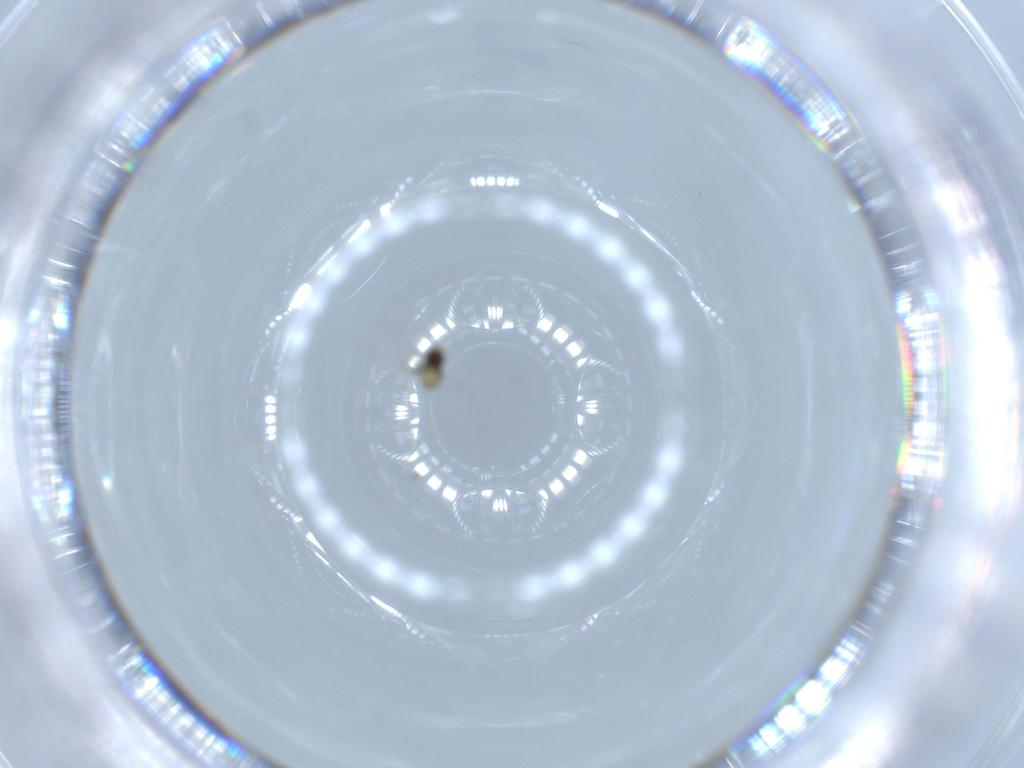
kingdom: Animalia
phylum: Arthropoda
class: Insecta
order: Hymenoptera
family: Aphelinidae
